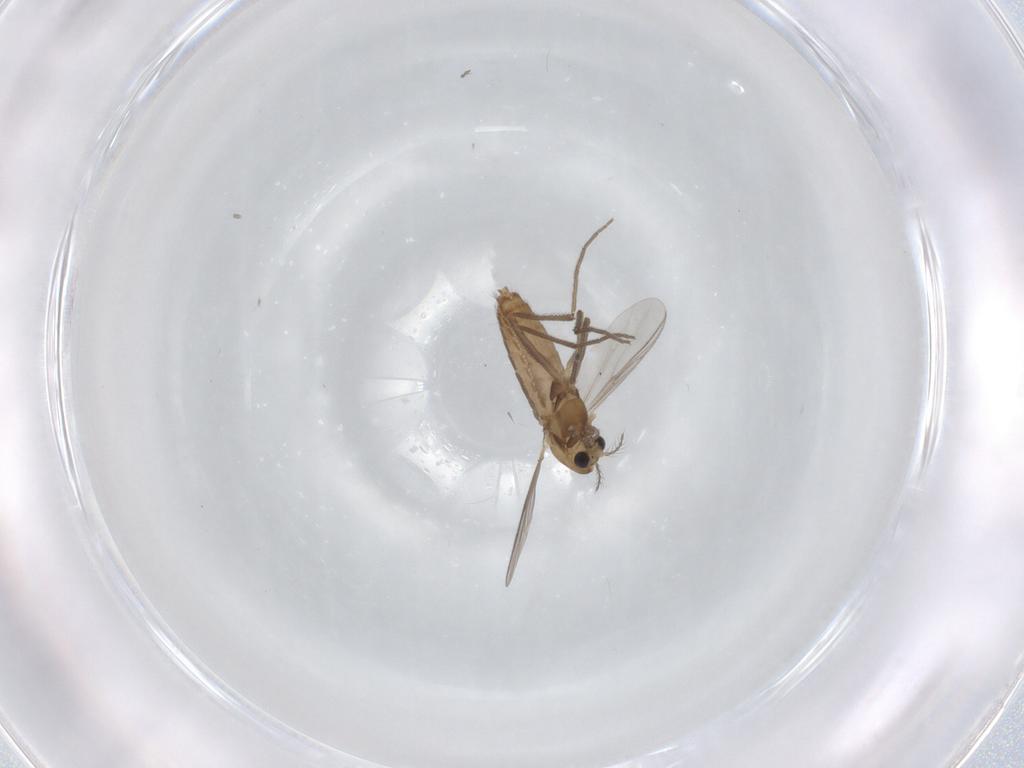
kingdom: Animalia
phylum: Arthropoda
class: Insecta
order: Diptera
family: Chironomidae
